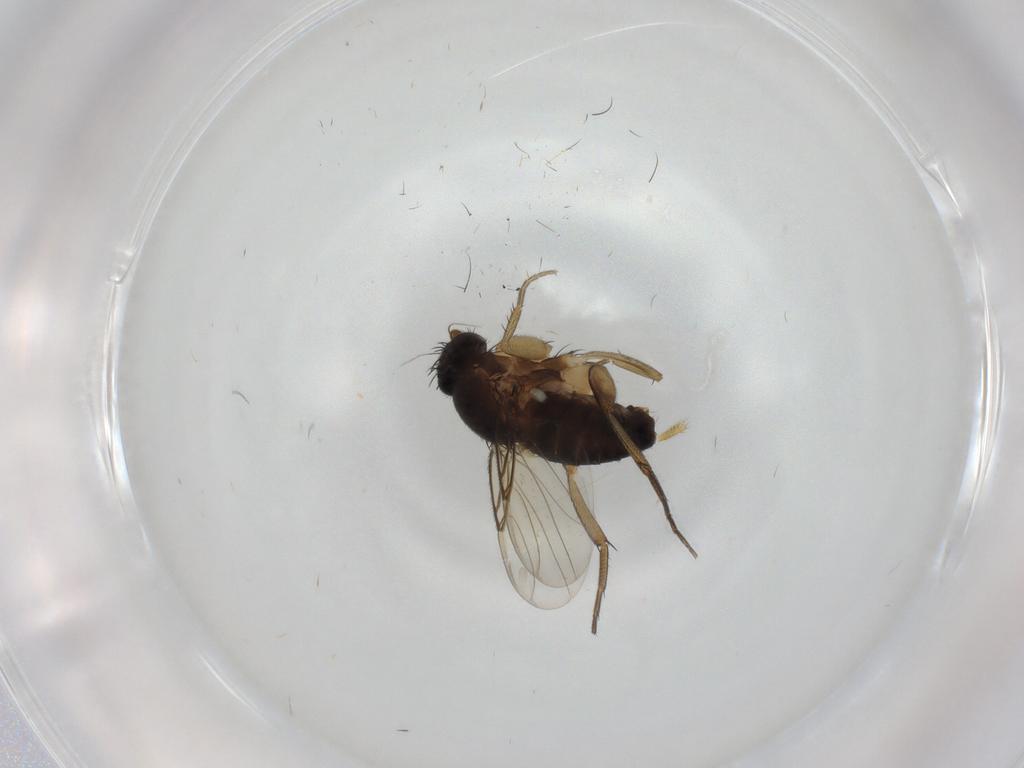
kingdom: Animalia
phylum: Arthropoda
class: Insecta
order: Diptera
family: Phoridae
